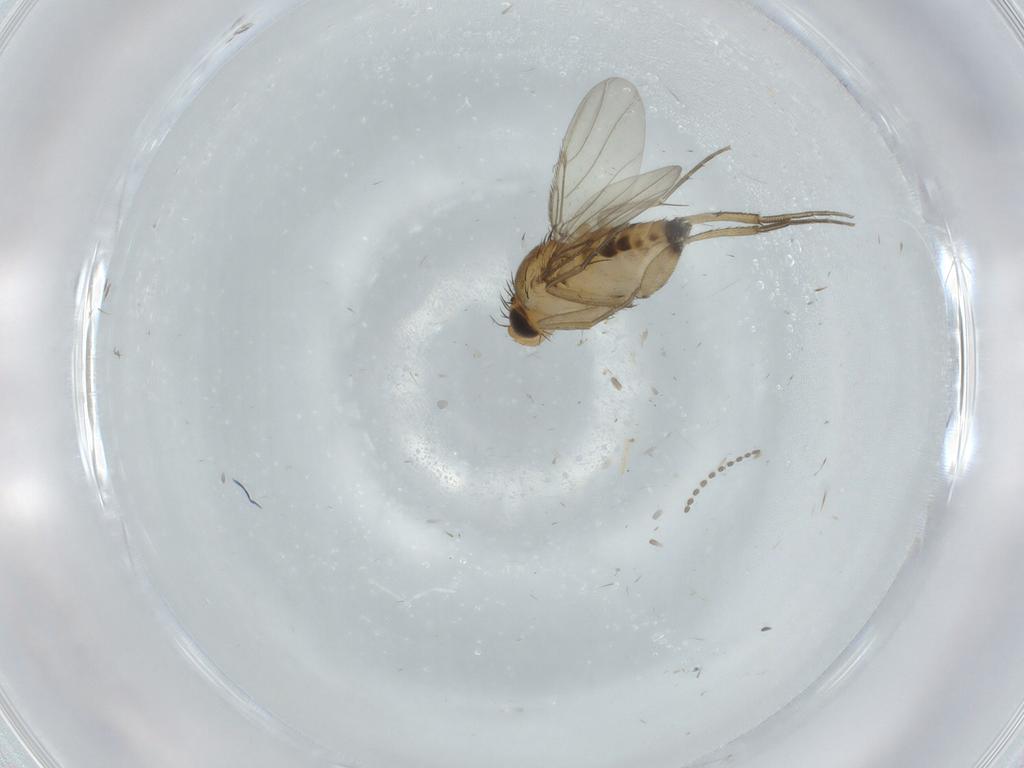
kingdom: Animalia
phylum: Arthropoda
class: Insecta
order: Diptera
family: Phoridae
